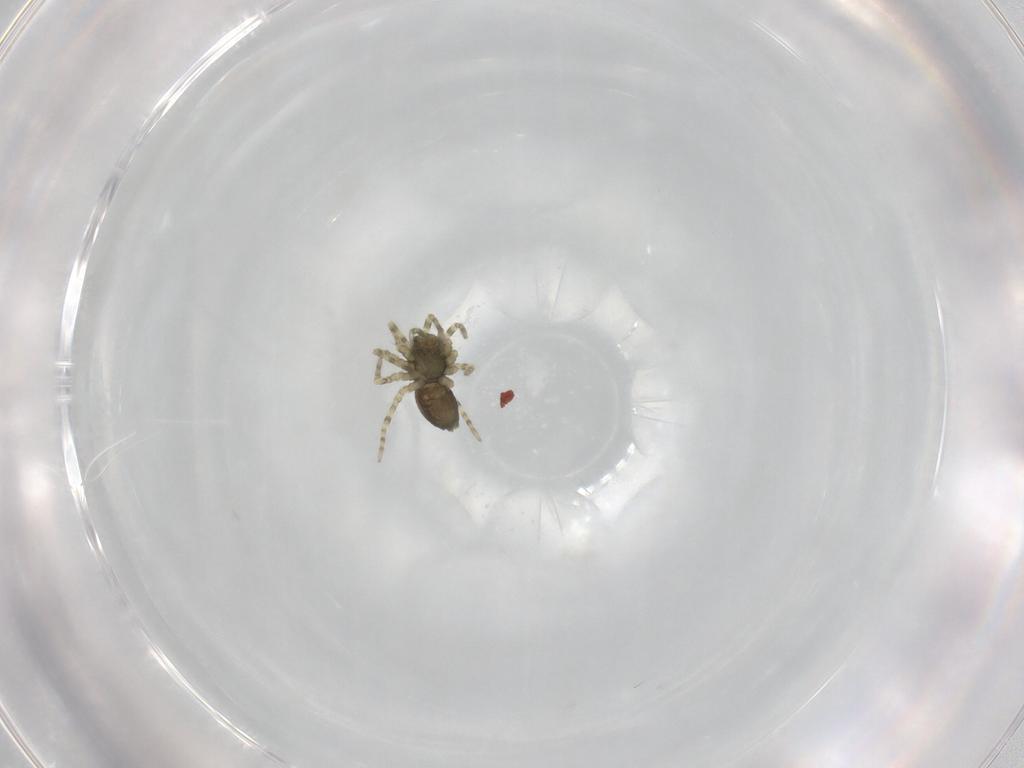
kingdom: Animalia
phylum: Arthropoda
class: Arachnida
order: Araneae
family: Linyphiidae
